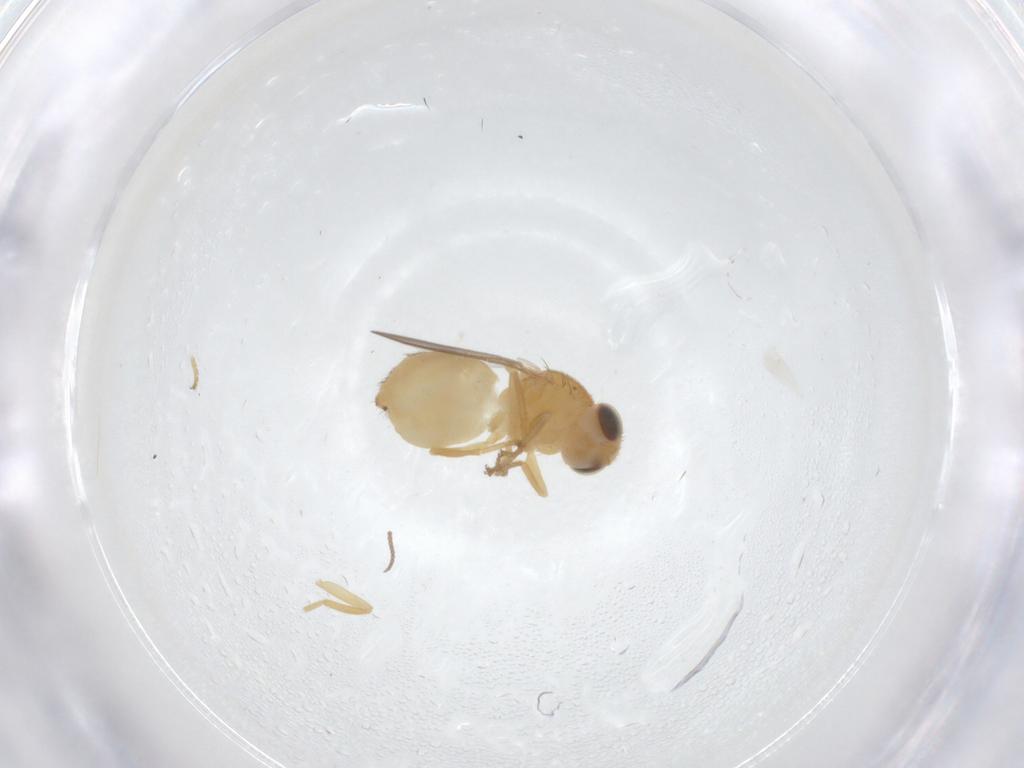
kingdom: Animalia
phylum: Arthropoda
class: Insecta
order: Diptera
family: Chloropidae
